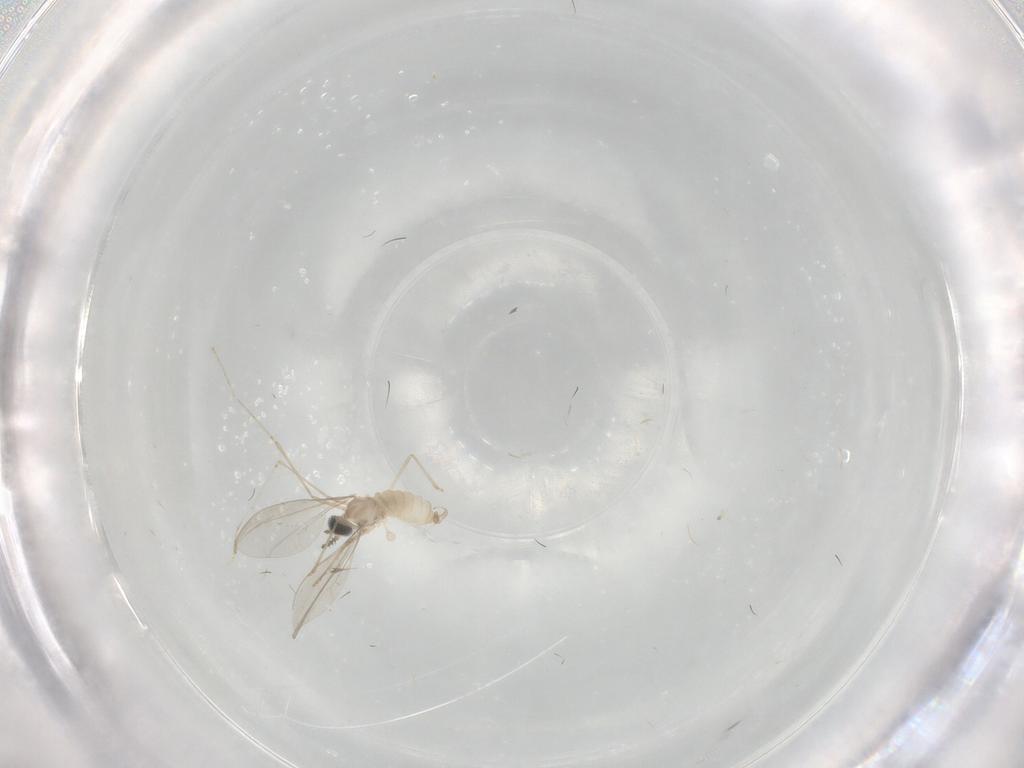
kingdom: Animalia
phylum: Arthropoda
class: Insecta
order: Diptera
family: Cecidomyiidae
